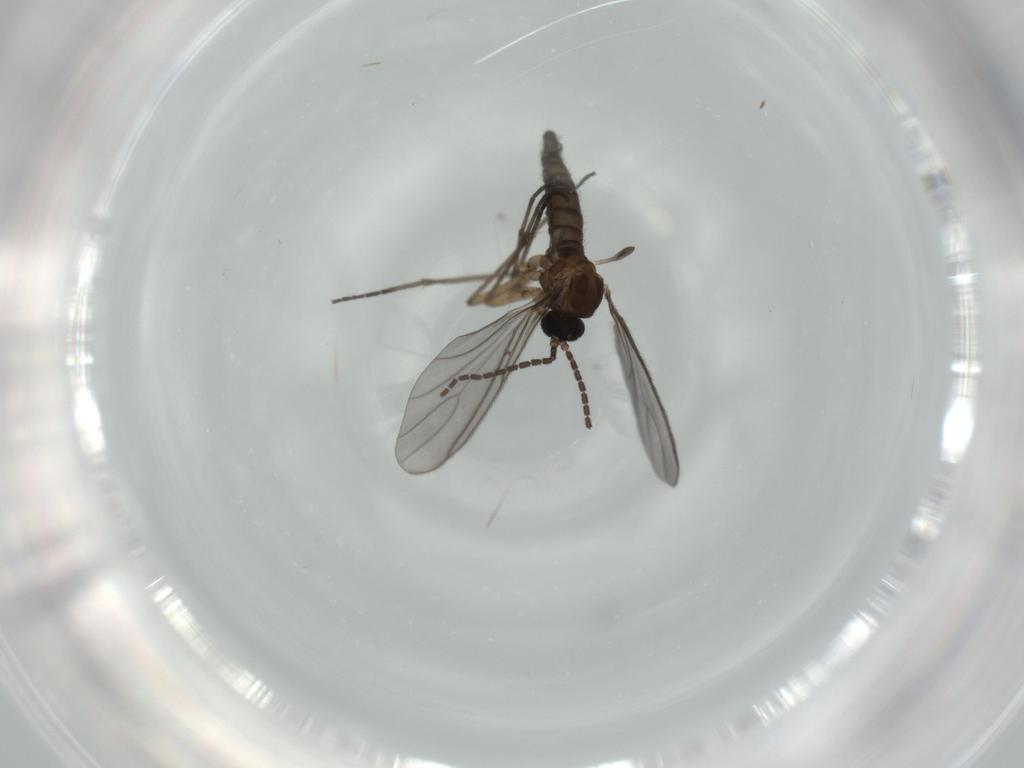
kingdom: Animalia
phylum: Arthropoda
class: Insecta
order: Diptera
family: Sciaridae
